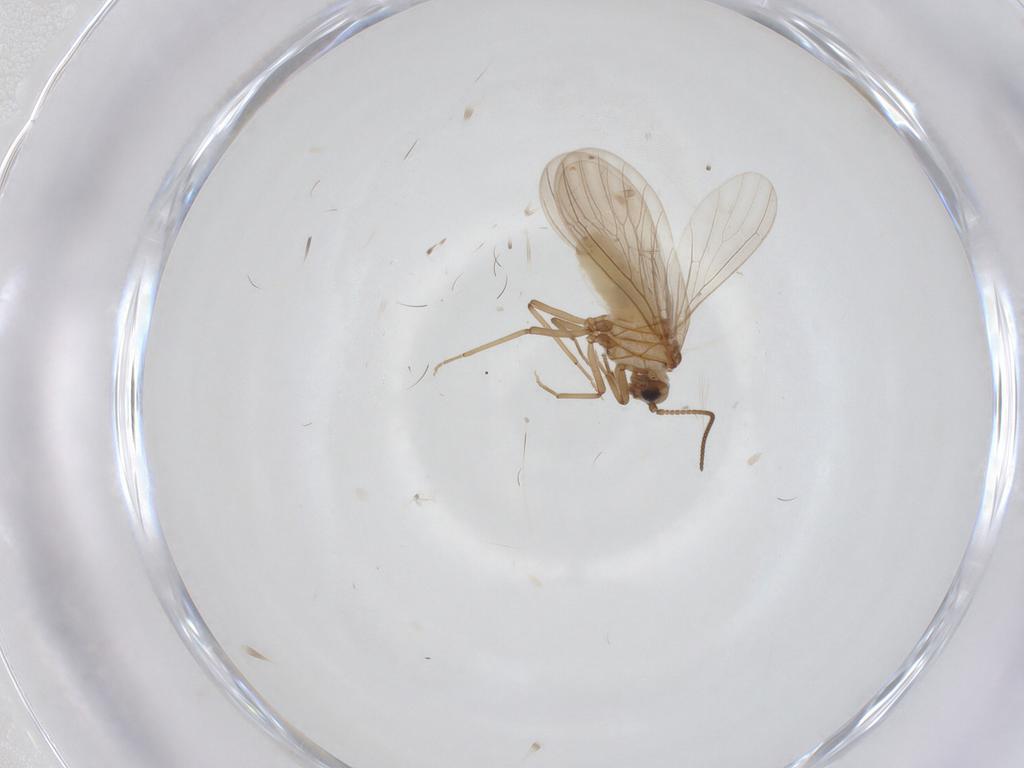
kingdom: Animalia
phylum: Arthropoda
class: Insecta
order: Neuroptera
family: Coniopterygidae
